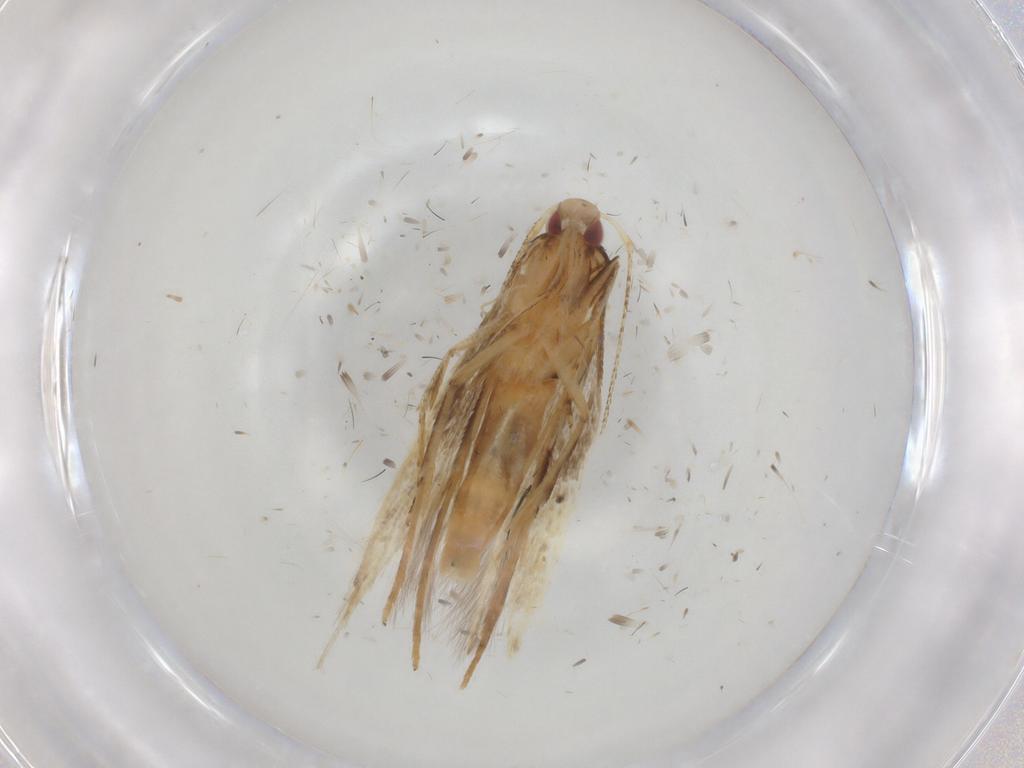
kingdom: Animalia
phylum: Arthropoda
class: Insecta
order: Lepidoptera
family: Cosmopterigidae
